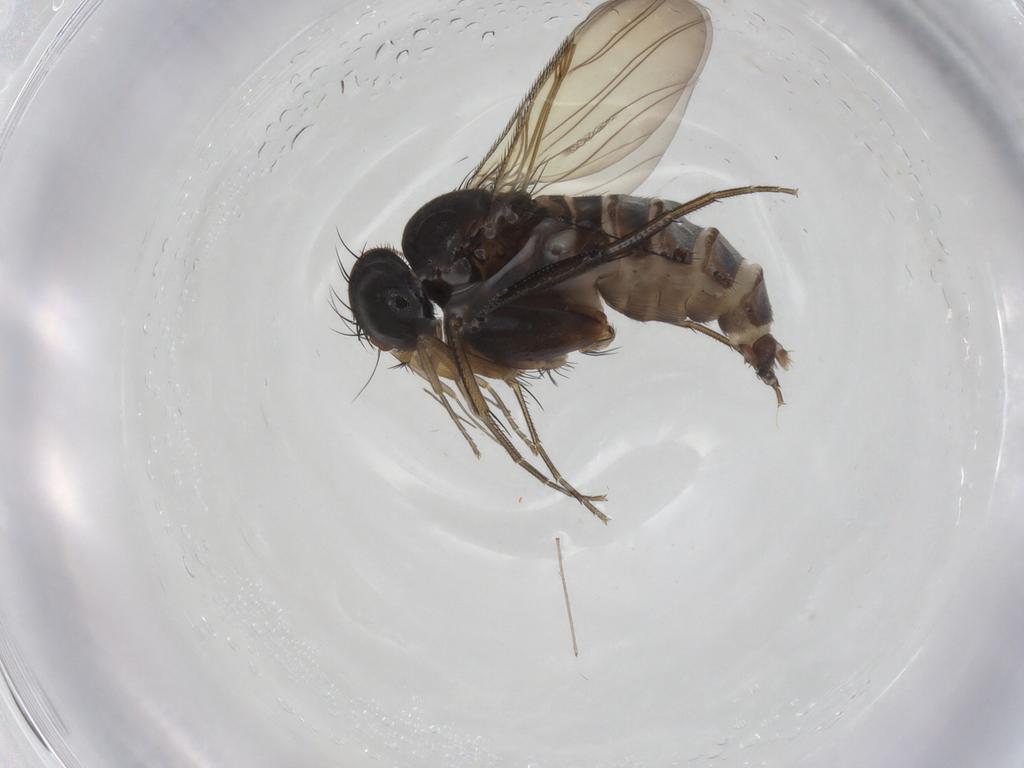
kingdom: Animalia
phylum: Arthropoda
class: Insecta
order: Diptera
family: Phoridae
